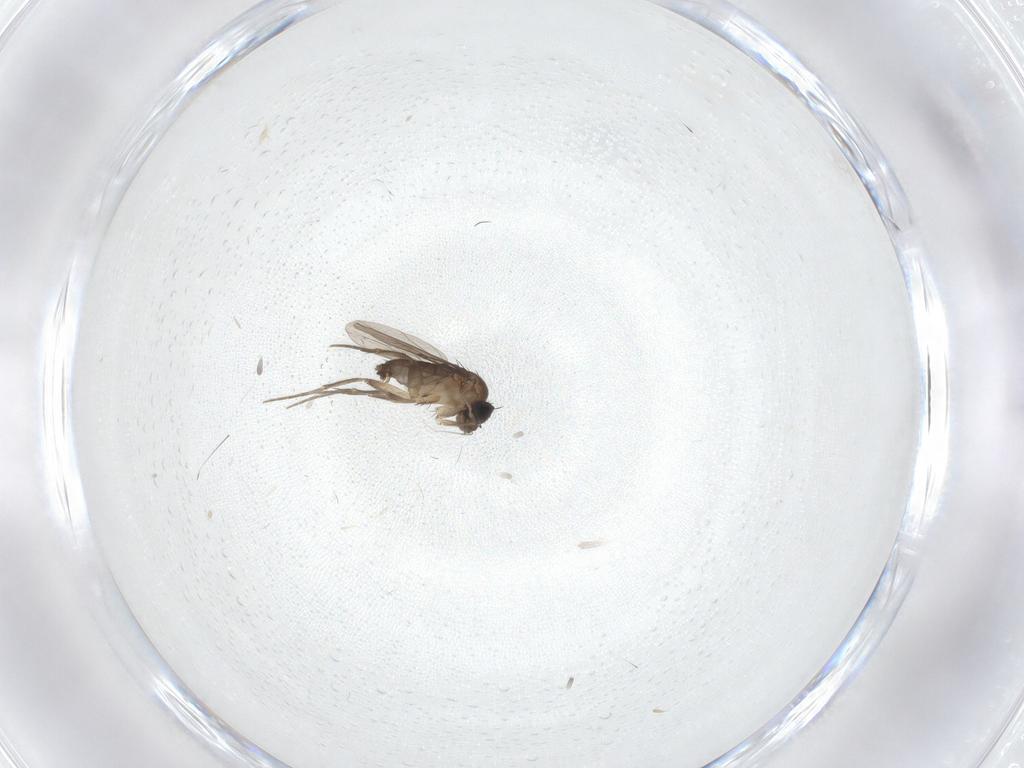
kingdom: Animalia
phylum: Arthropoda
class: Insecta
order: Diptera
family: Phoridae
